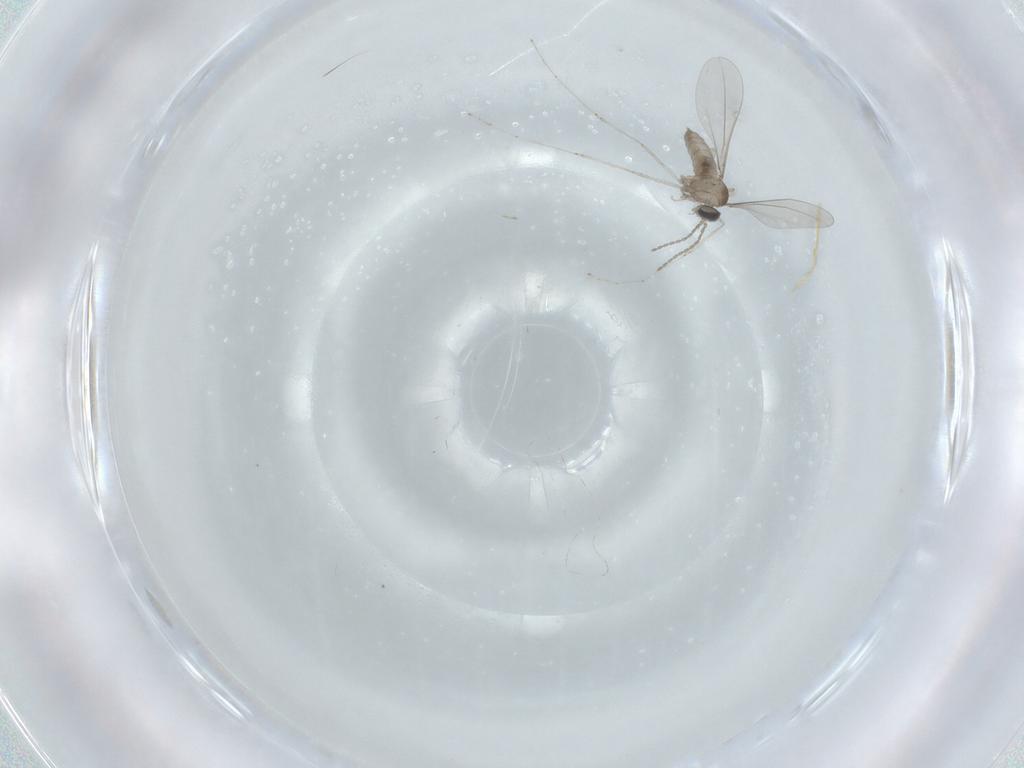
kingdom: Animalia
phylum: Arthropoda
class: Insecta
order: Diptera
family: Cecidomyiidae
